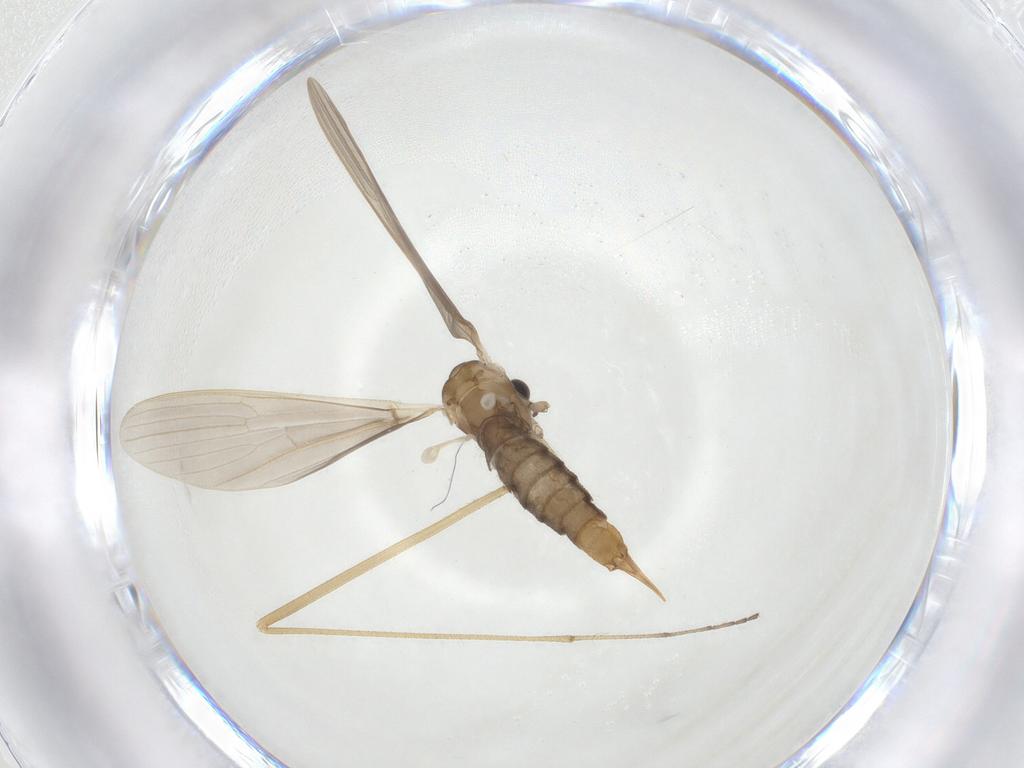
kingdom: Animalia
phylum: Arthropoda
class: Insecta
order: Diptera
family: Limoniidae
